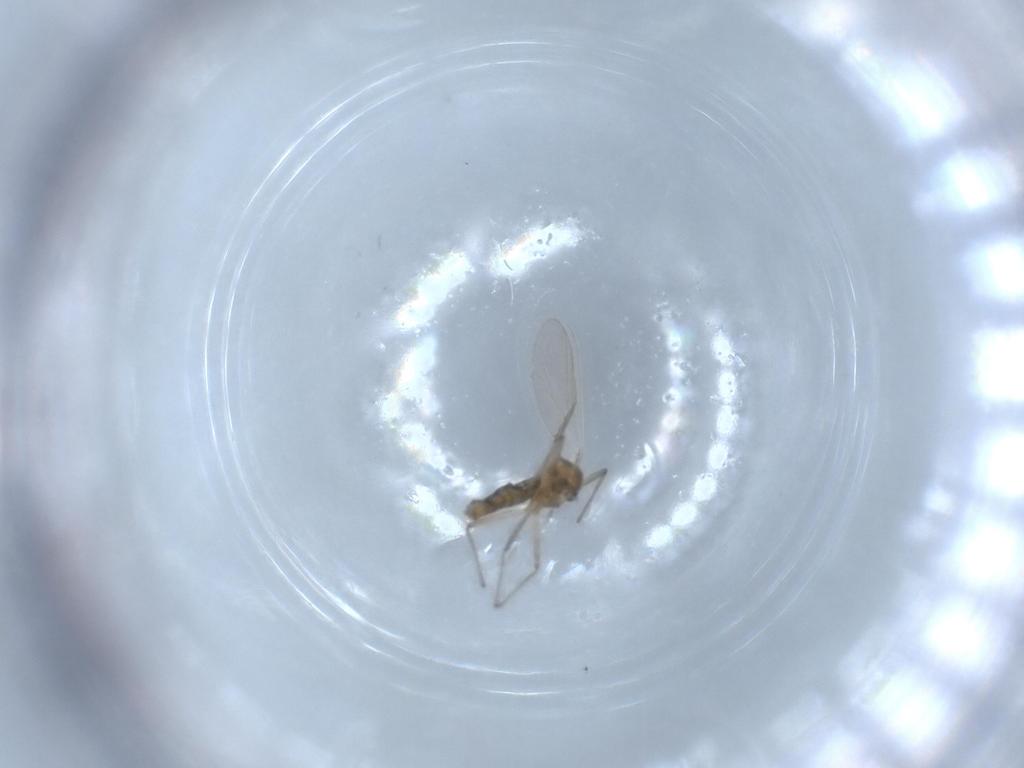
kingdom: Animalia
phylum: Arthropoda
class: Insecta
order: Diptera
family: Chironomidae
